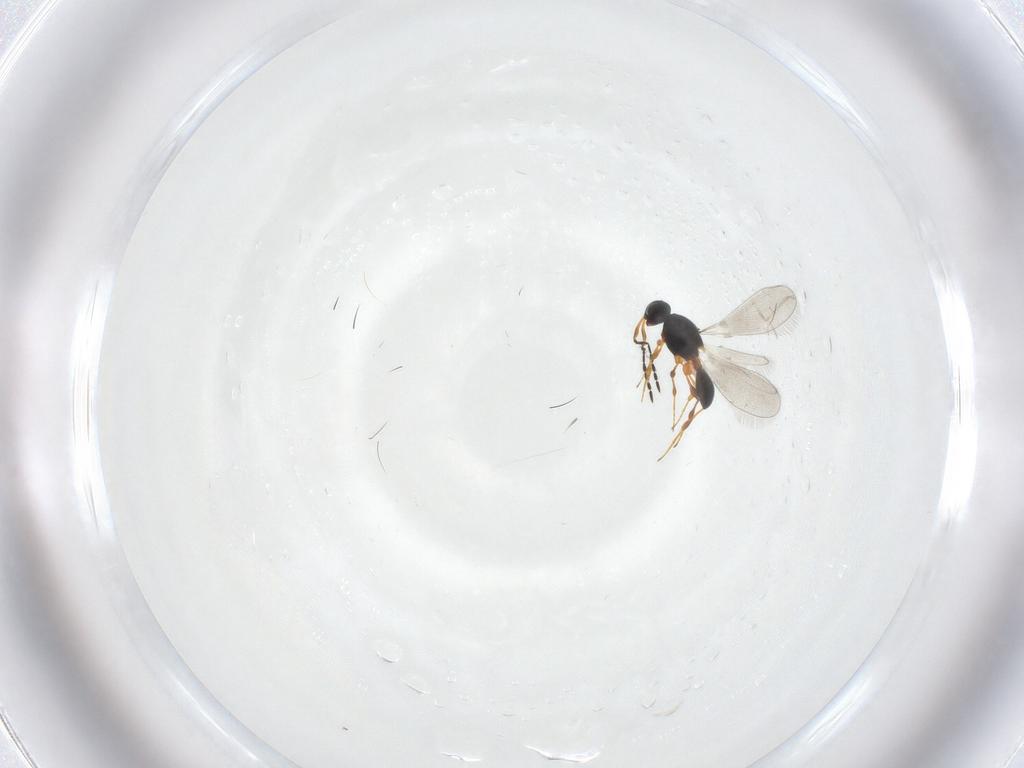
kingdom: Animalia
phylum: Arthropoda
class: Insecta
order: Hymenoptera
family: Platygastridae
